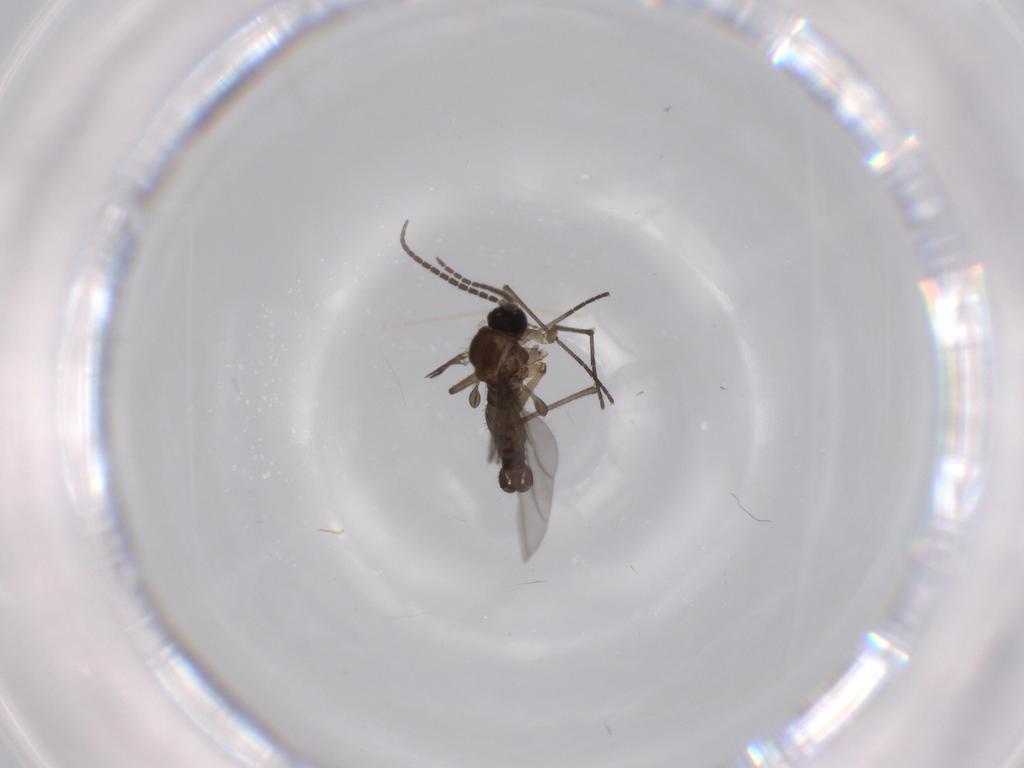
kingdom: Animalia
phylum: Arthropoda
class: Insecta
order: Diptera
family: Sciaridae
